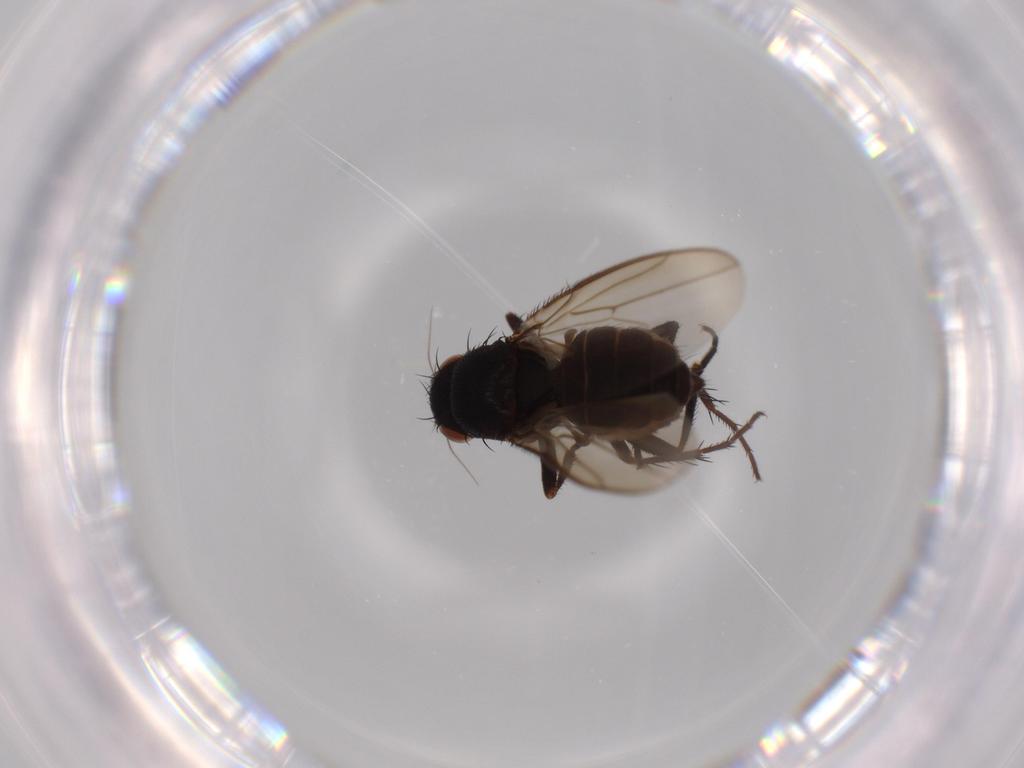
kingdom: Animalia
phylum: Arthropoda
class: Insecta
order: Diptera
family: Sphaeroceridae
